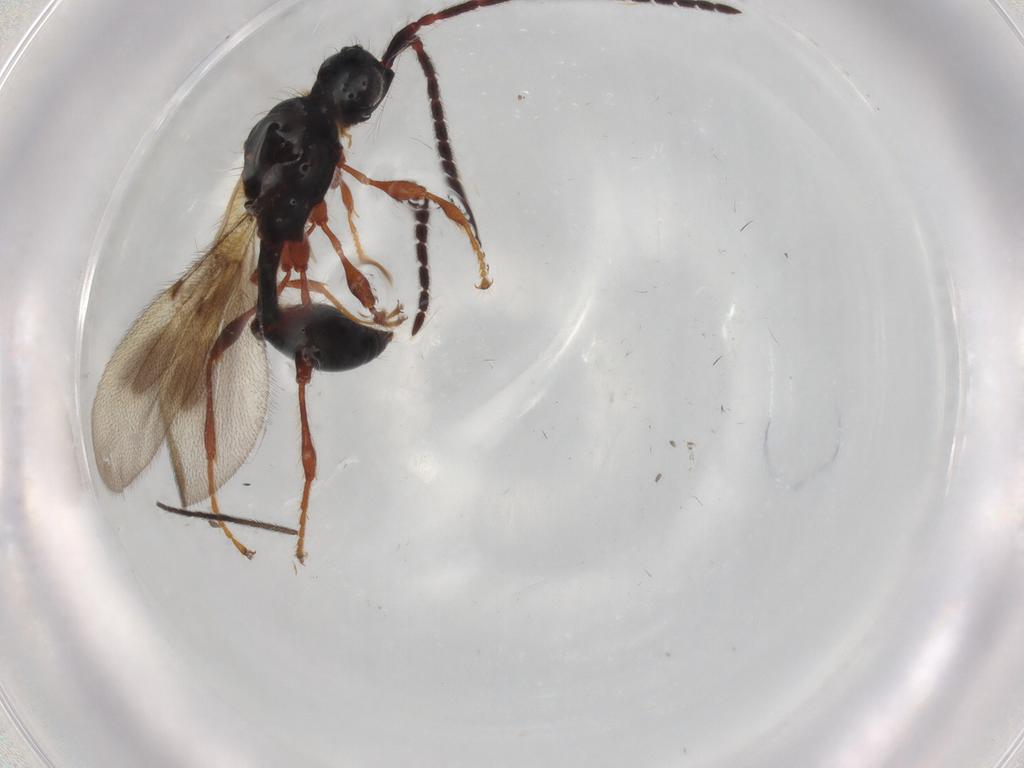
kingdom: Animalia
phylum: Arthropoda
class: Insecta
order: Hymenoptera
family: Diapriidae
